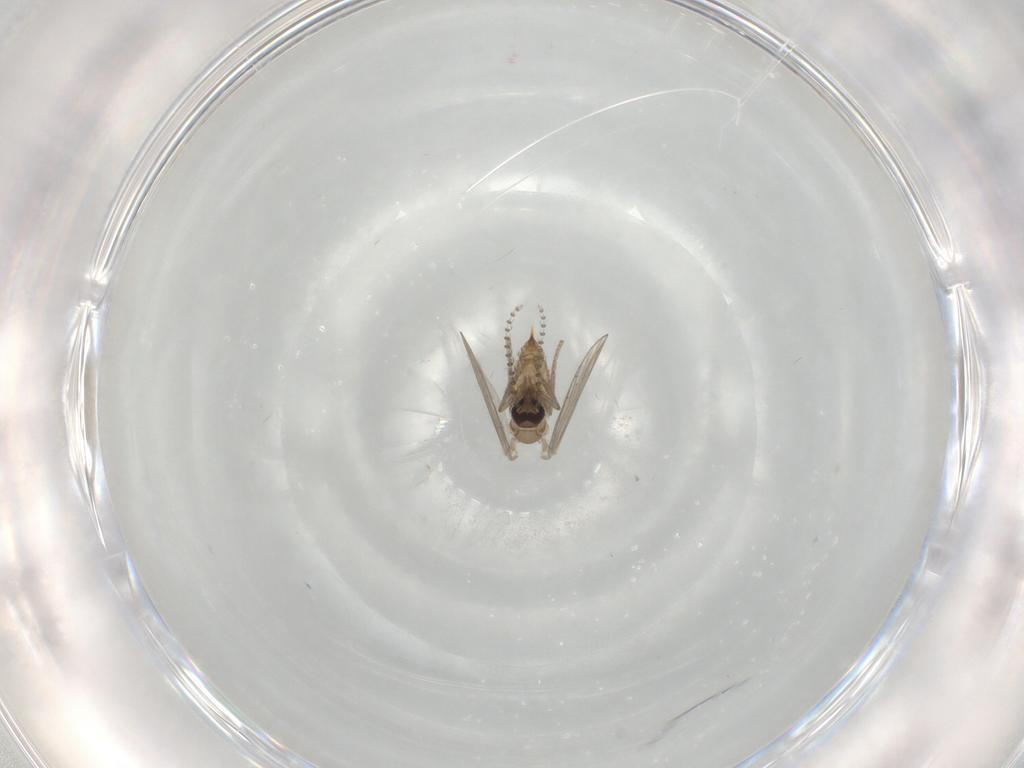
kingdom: Animalia
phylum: Arthropoda
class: Insecta
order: Diptera
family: Psychodidae
